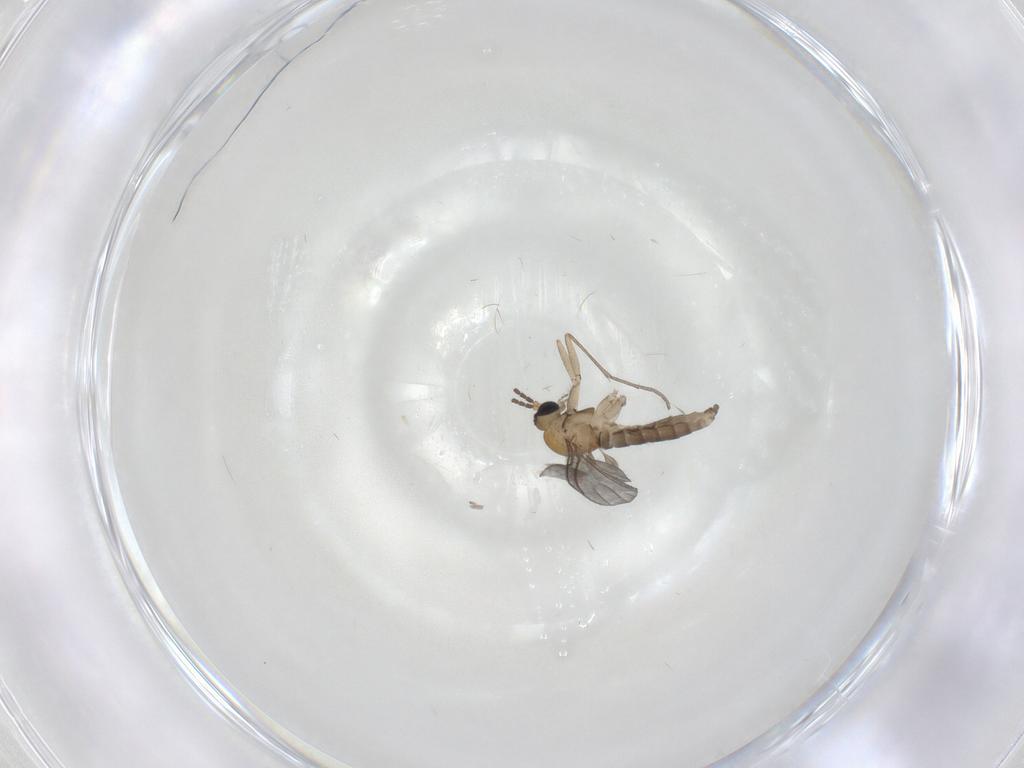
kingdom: Animalia
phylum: Arthropoda
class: Insecta
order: Diptera
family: Sciaridae
